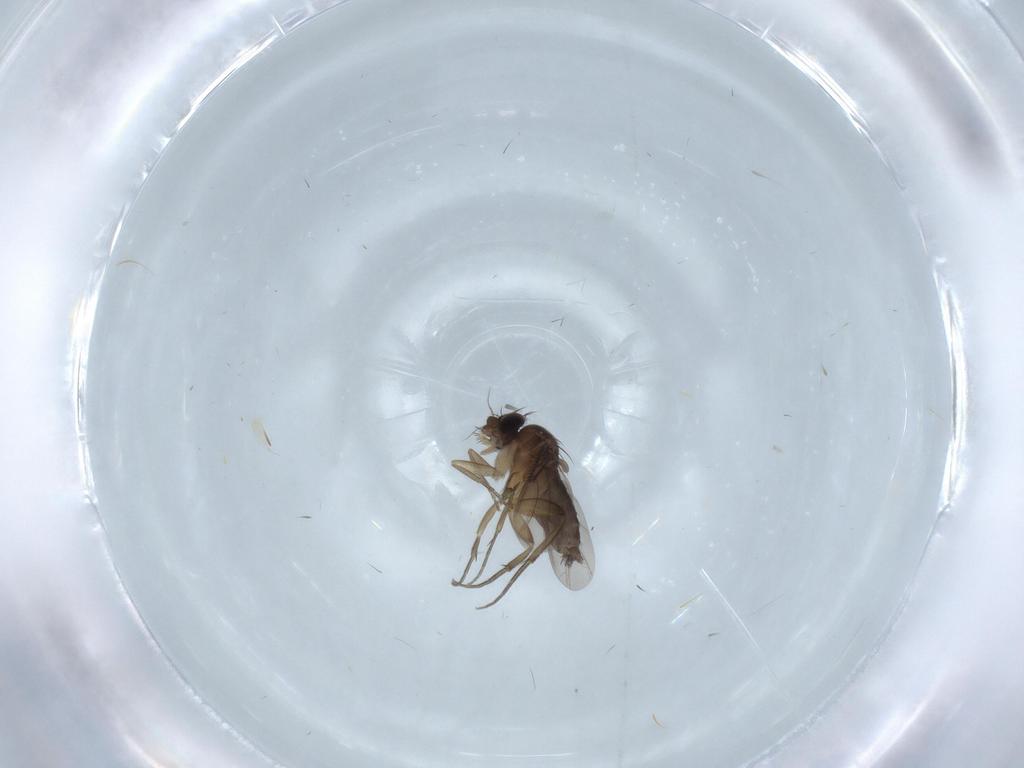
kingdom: Animalia
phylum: Arthropoda
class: Insecta
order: Diptera
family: Phoridae
